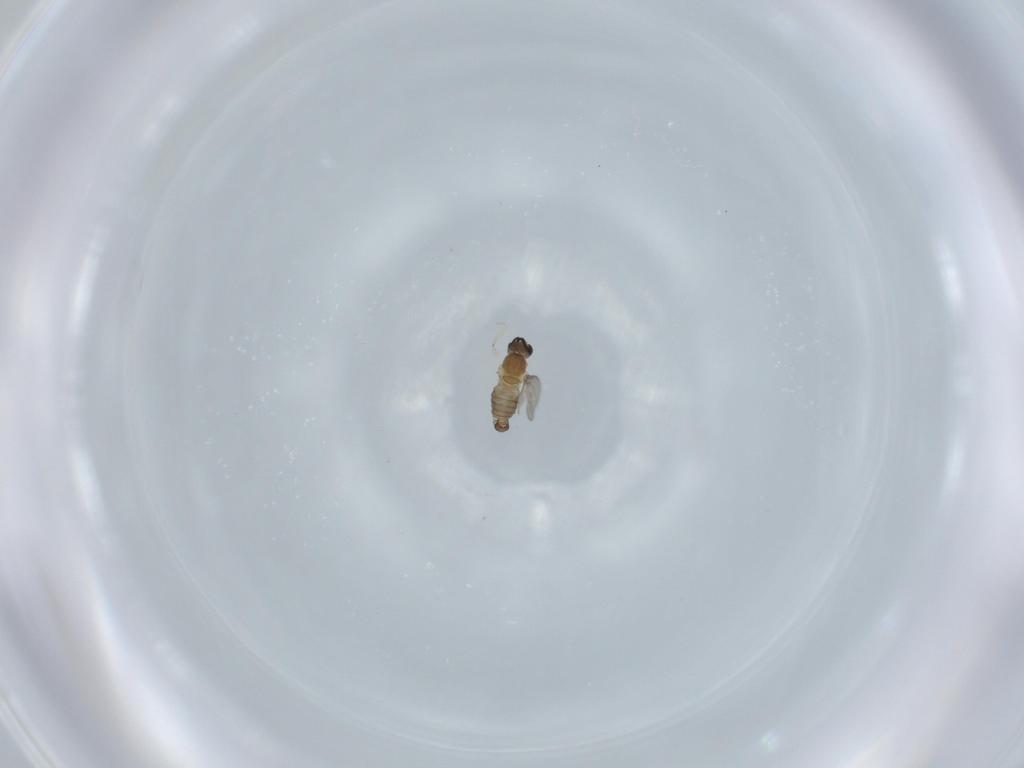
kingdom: Animalia
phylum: Arthropoda
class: Insecta
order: Diptera
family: Cecidomyiidae
